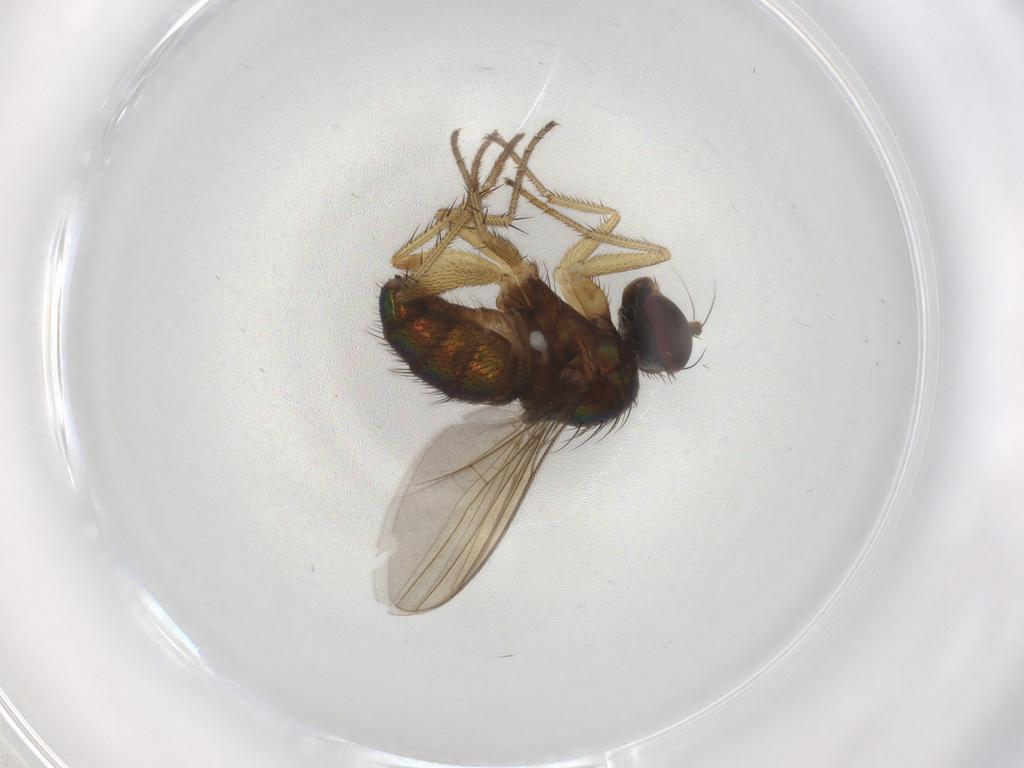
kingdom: Animalia
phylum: Arthropoda
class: Insecta
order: Diptera
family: Dolichopodidae
